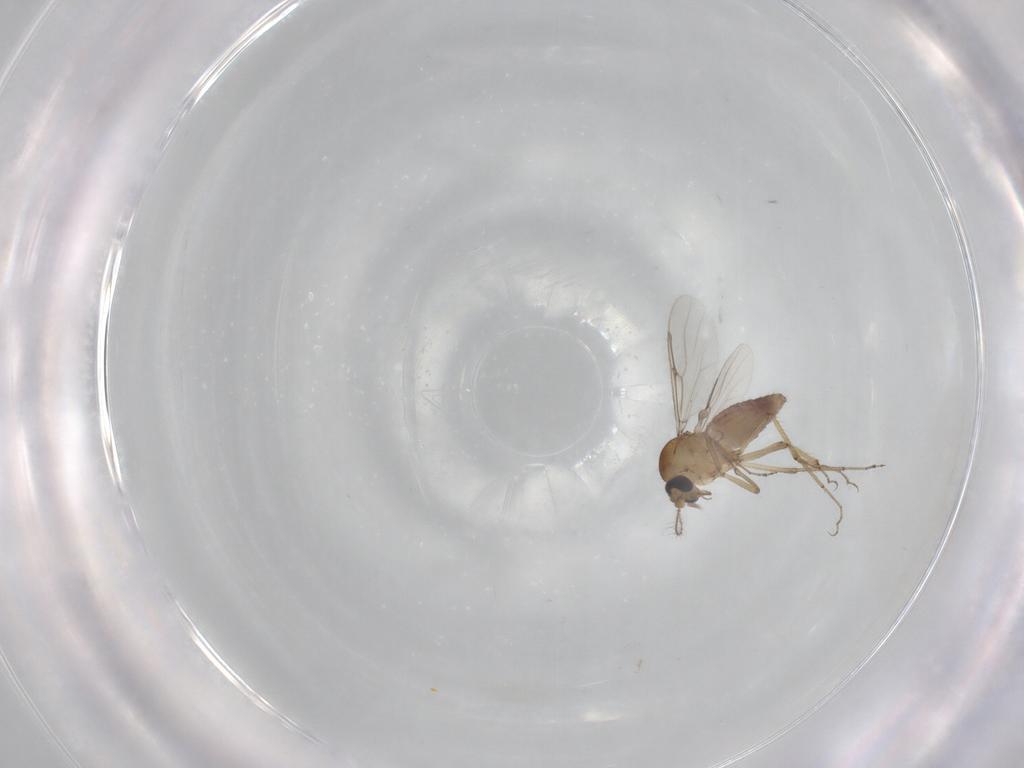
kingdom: Animalia
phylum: Arthropoda
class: Insecta
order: Diptera
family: Ceratopogonidae
